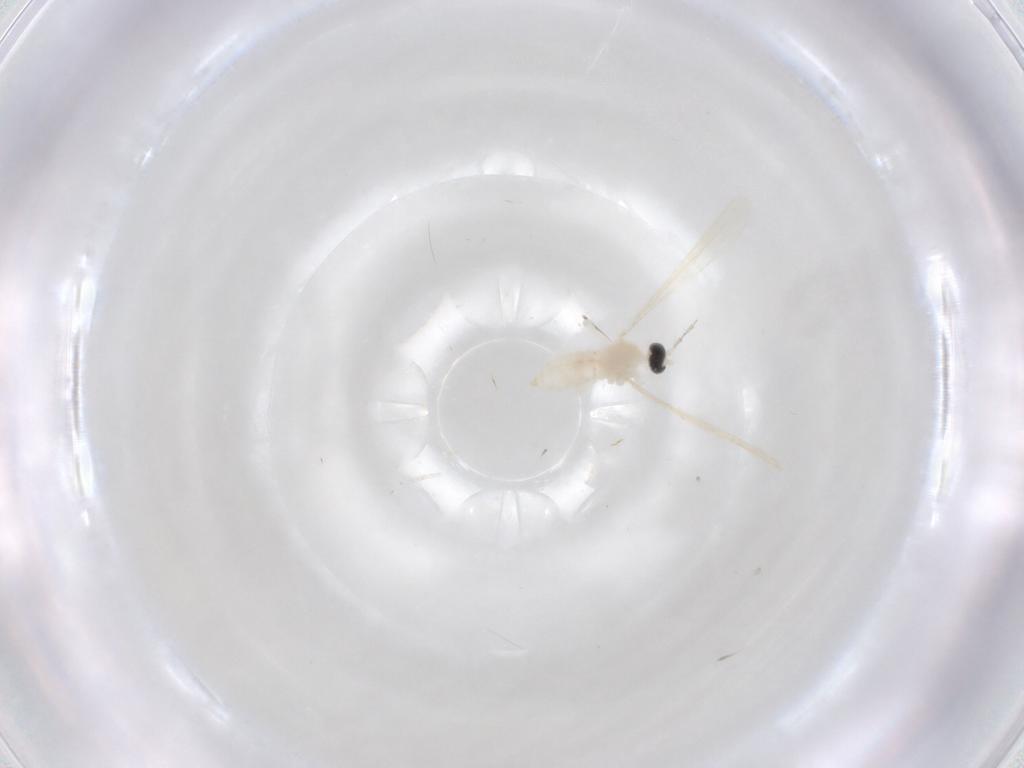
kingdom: Animalia
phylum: Arthropoda
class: Insecta
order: Diptera
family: Cecidomyiidae
